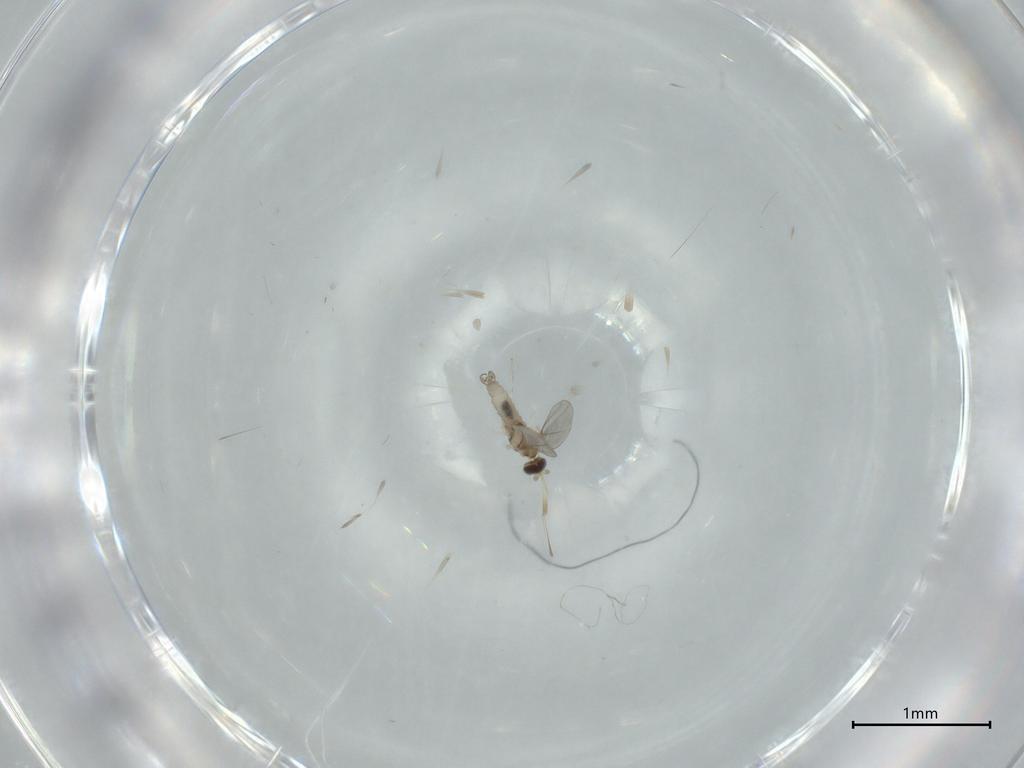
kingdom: Animalia
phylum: Arthropoda
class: Insecta
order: Diptera
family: Cecidomyiidae
